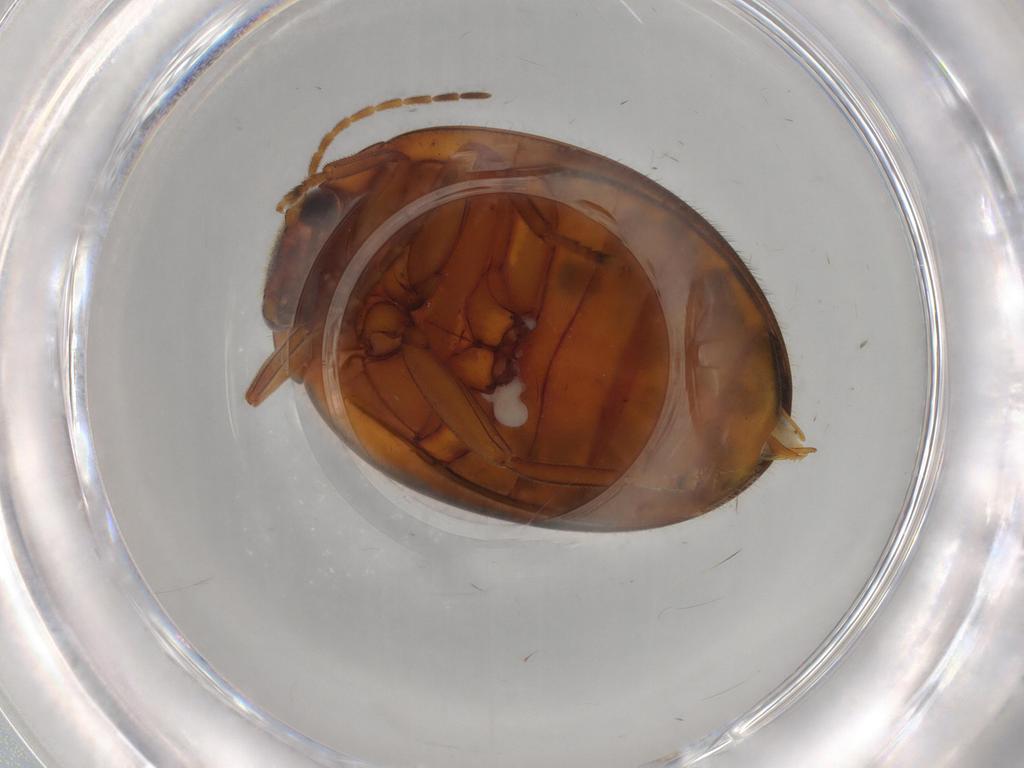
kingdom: Animalia
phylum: Arthropoda
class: Insecta
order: Coleoptera
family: Scirtidae
